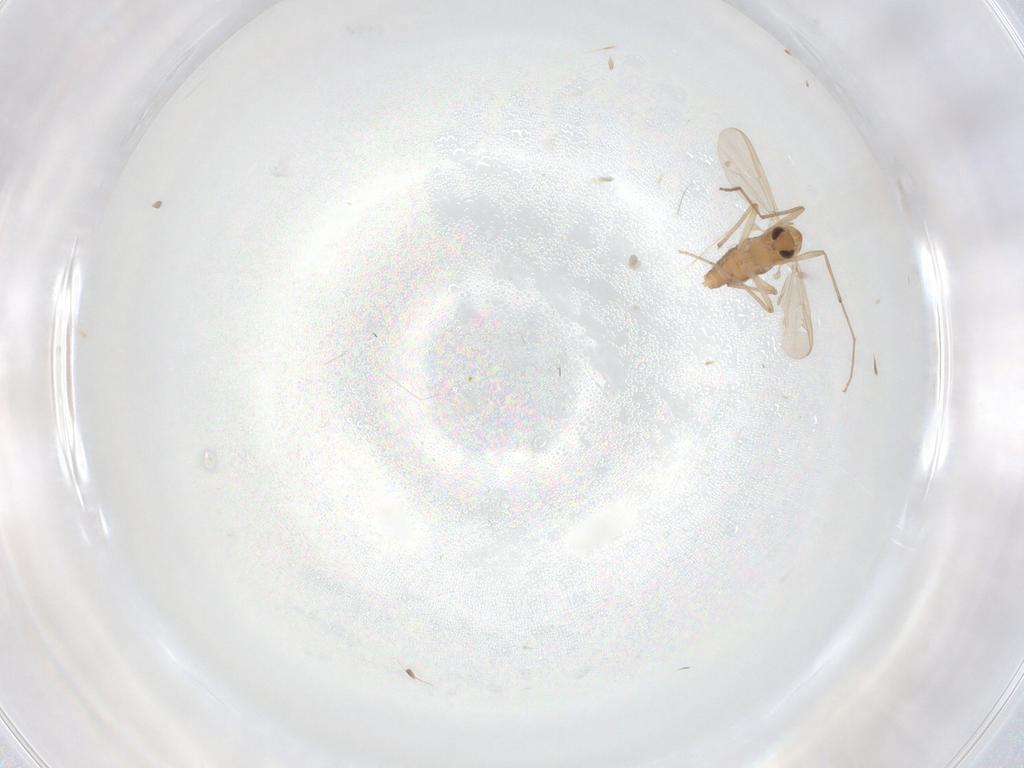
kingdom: Animalia
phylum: Arthropoda
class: Insecta
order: Diptera
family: Chironomidae
